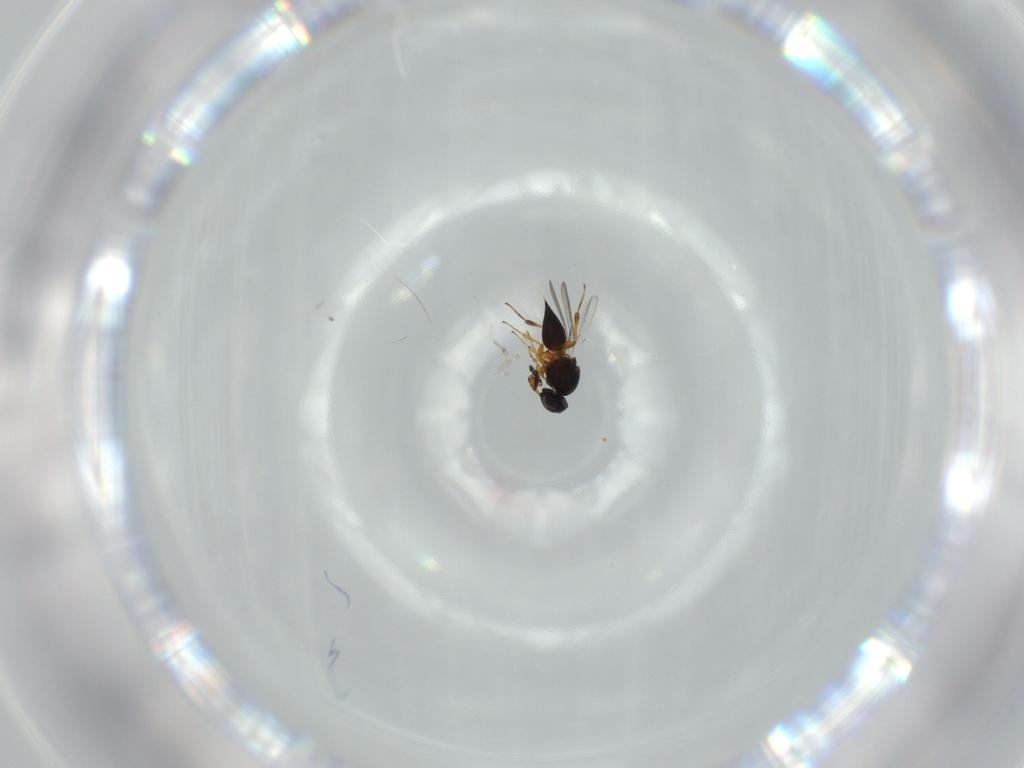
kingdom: Animalia
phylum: Arthropoda
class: Insecta
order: Hymenoptera
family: Platygastridae
